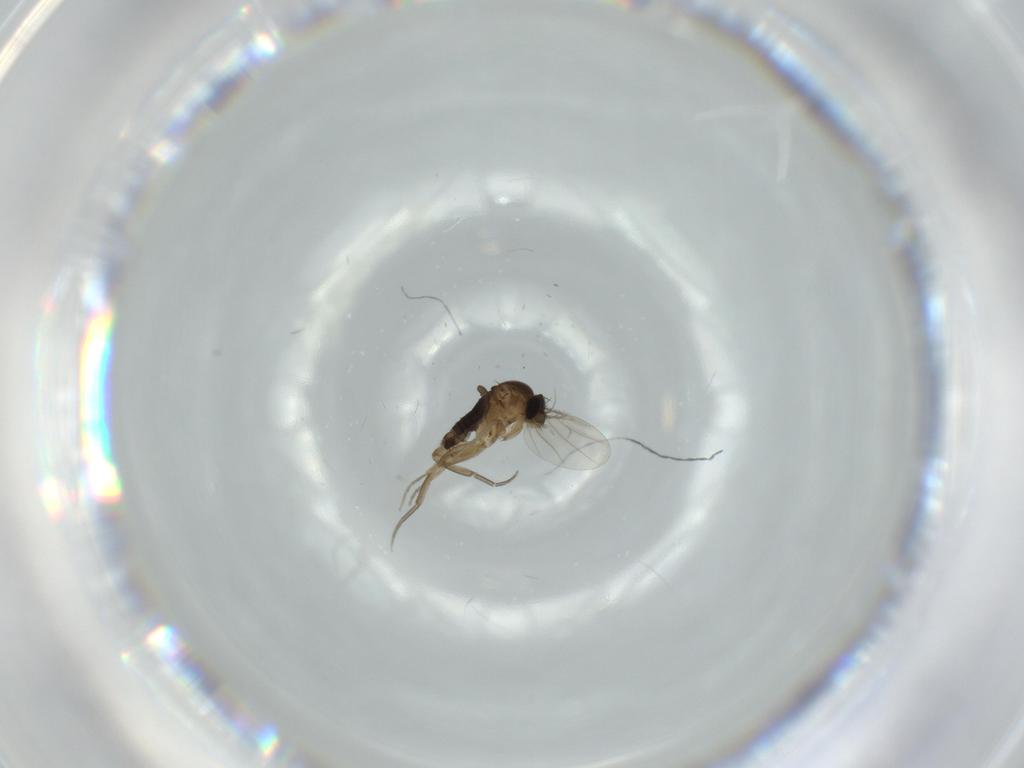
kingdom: Animalia
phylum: Arthropoda
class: Insecta
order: Diptera
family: Phoridae
